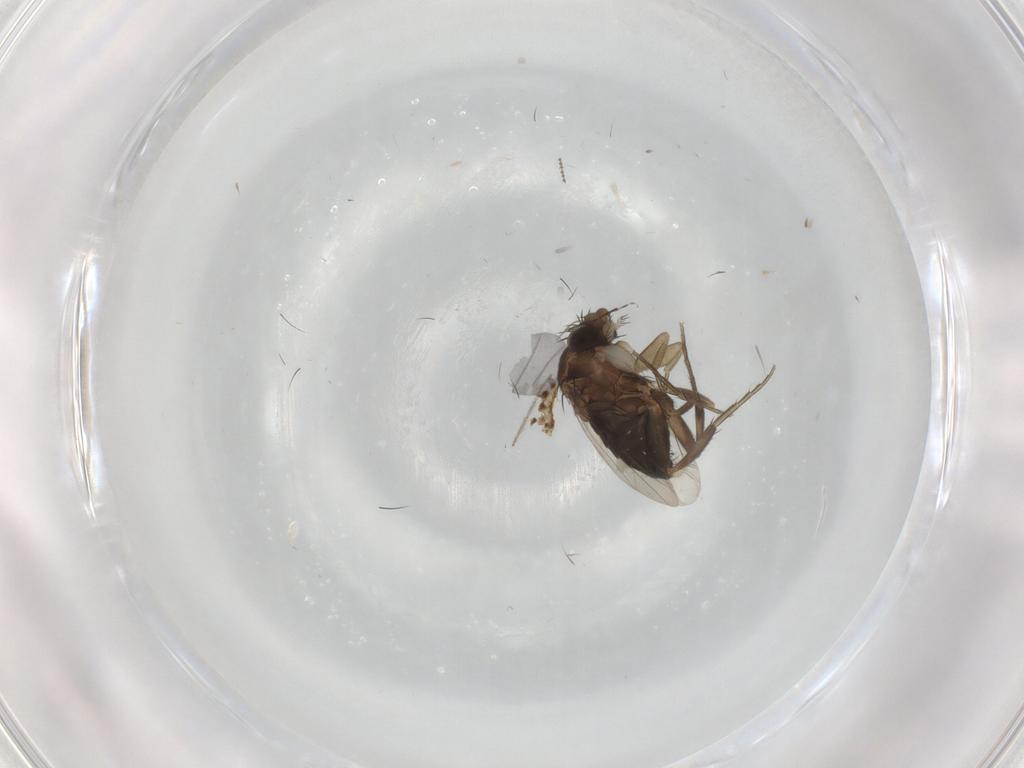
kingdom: Animalia
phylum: Arthropoda
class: Insecta
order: Diptera
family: Phoridae
